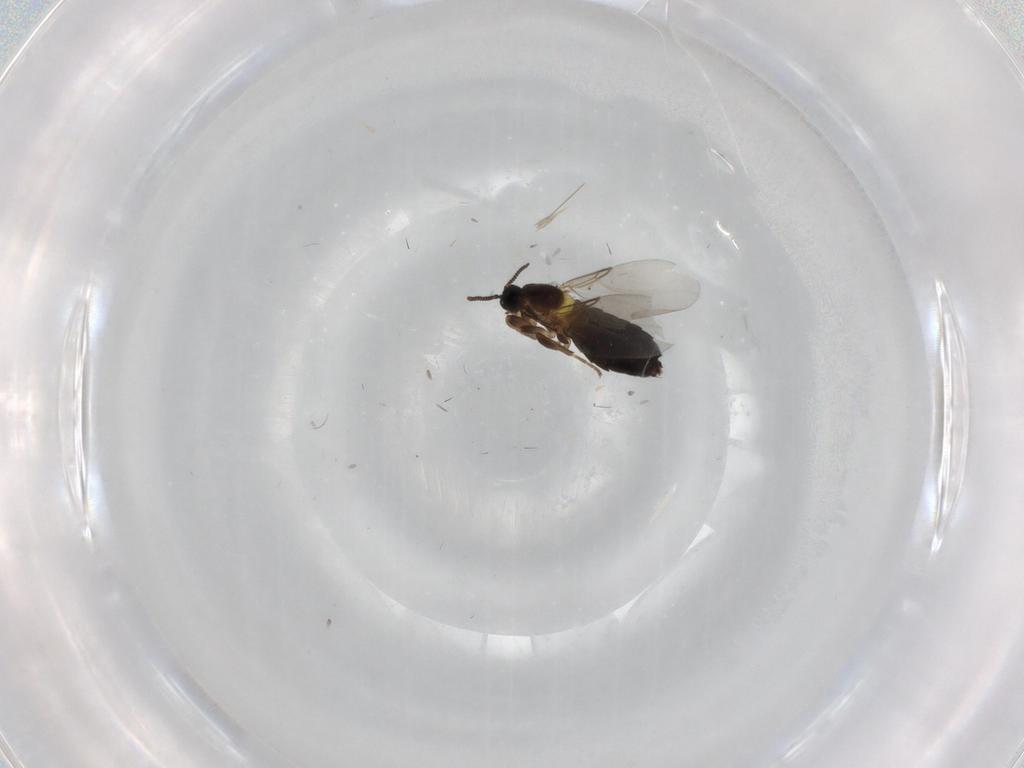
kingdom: Animalia
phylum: Arthropoda
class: Insecta
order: Diptera
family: Scatopsidae
